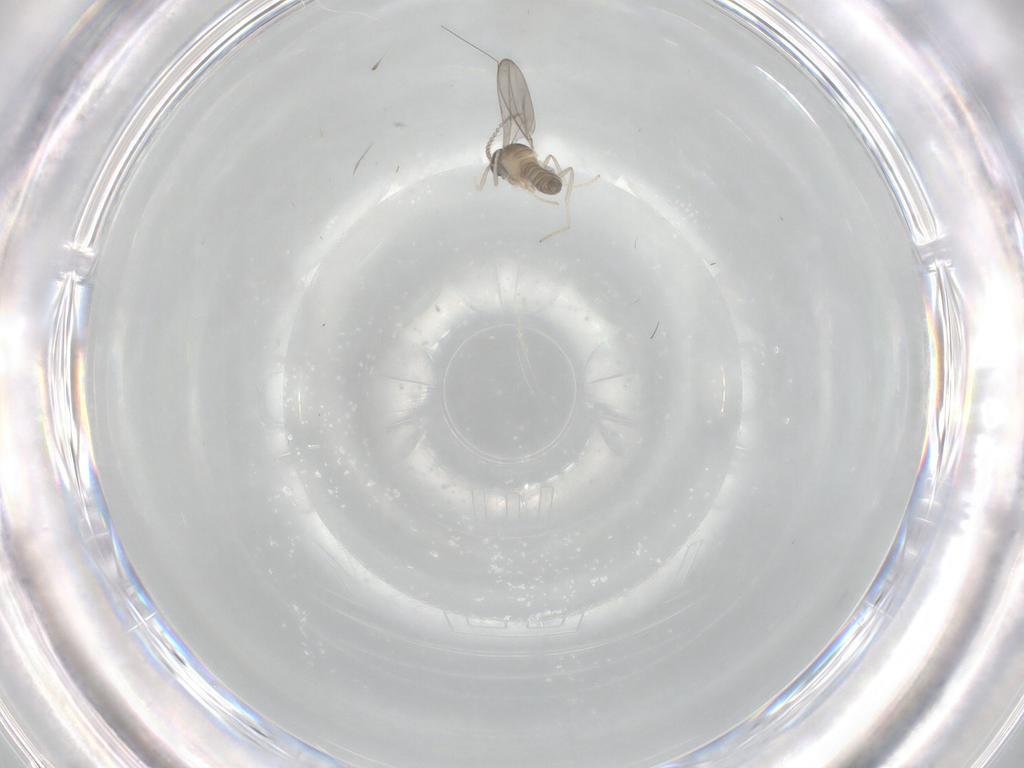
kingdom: Animalia
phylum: Arthropoda
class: Insecta
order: Diptera
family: Cecidomyiidae
